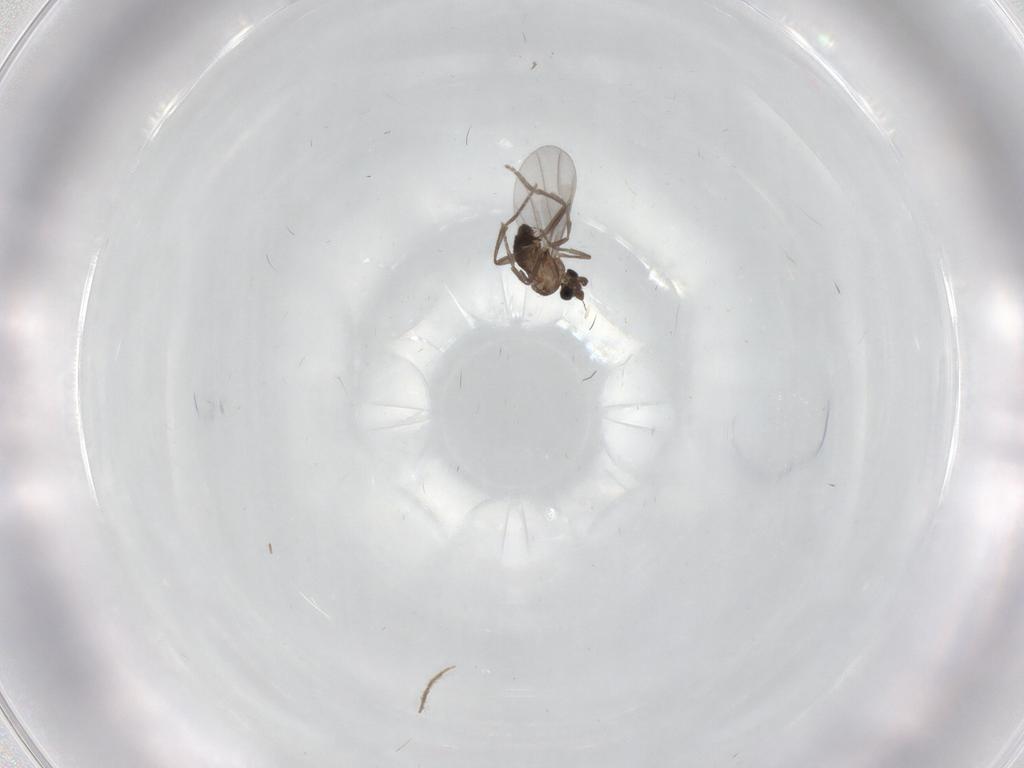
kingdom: Animalia
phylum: Arthropoda
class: Insecta
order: Diptera
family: Phoridae
